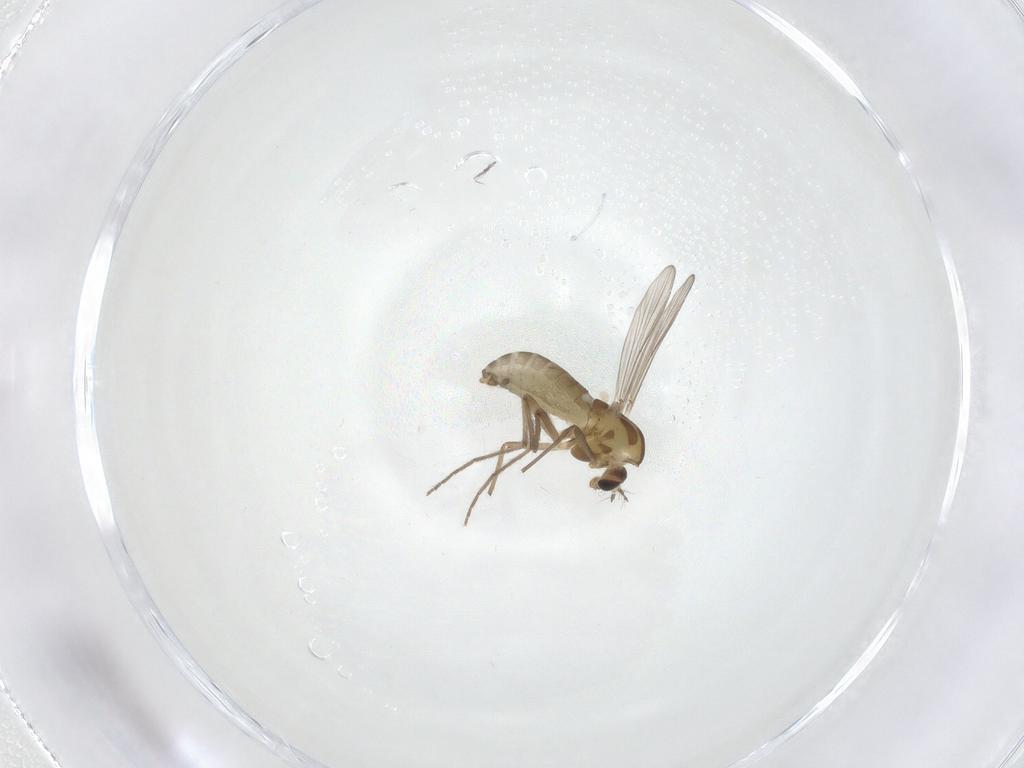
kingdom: Animalia
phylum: Arthropoda
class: Insecta
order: Diptera
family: Chironomidae
